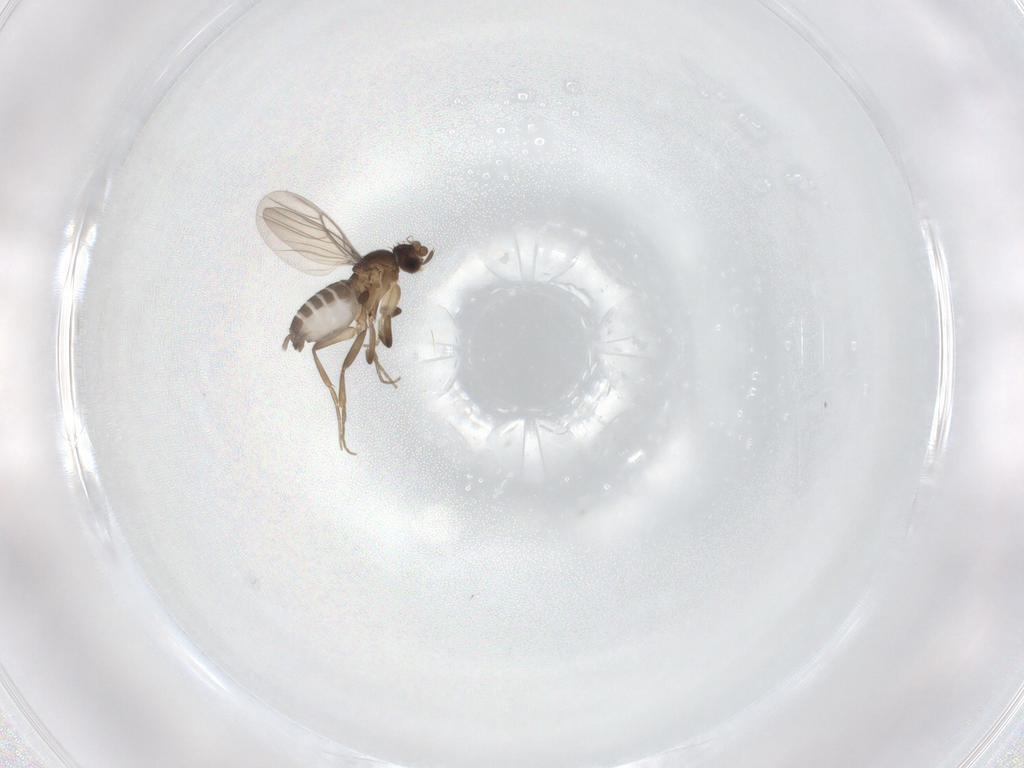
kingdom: Animalia
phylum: Arthropoda
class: Insecta
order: Diptera
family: Phoridae
